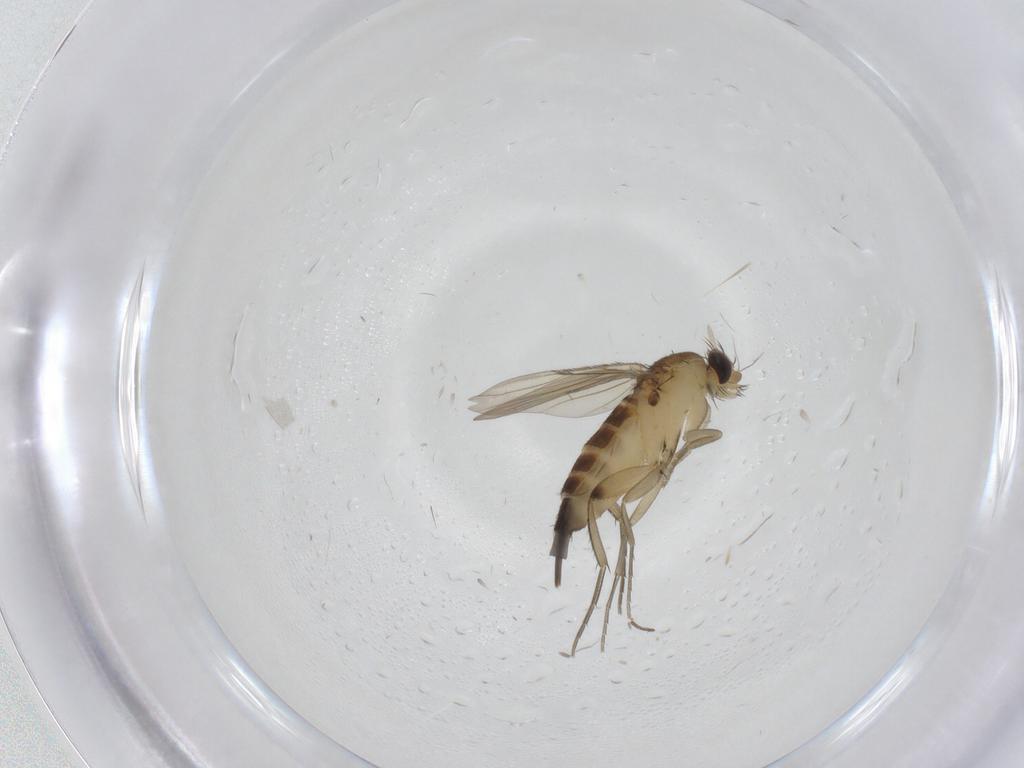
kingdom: Animalia
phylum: Arthropoda
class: Insecta
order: Diptera
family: Phoridae
